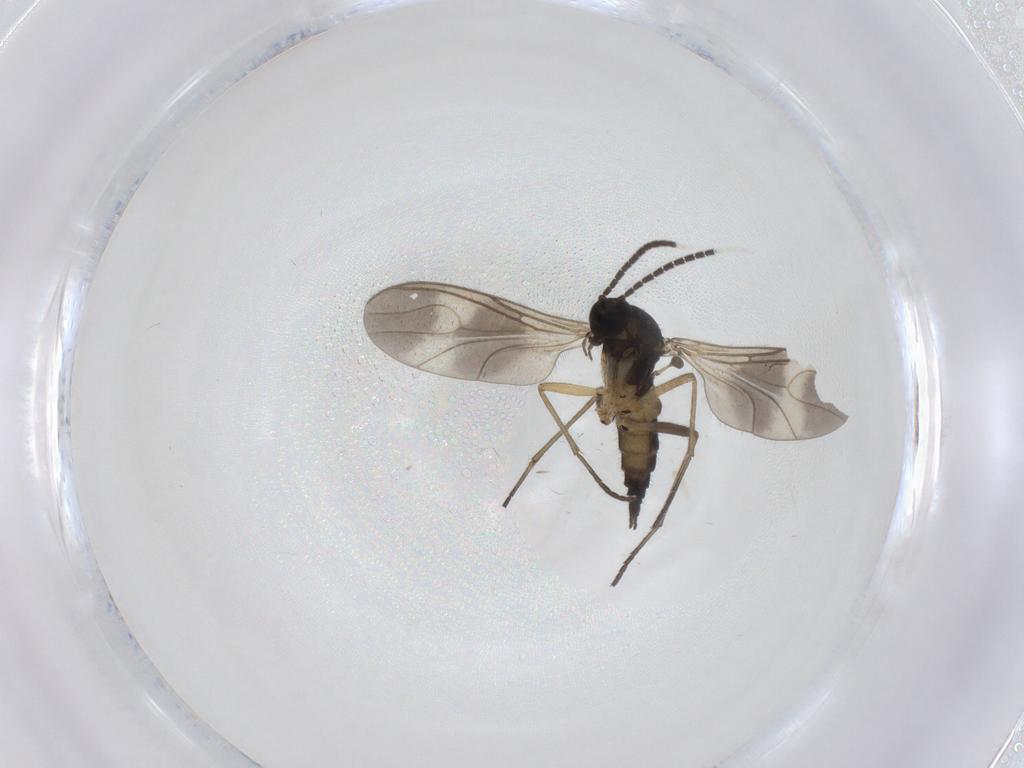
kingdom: Animalia
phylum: Arthropoda
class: Insecta
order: Diptera
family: Sciaridae
